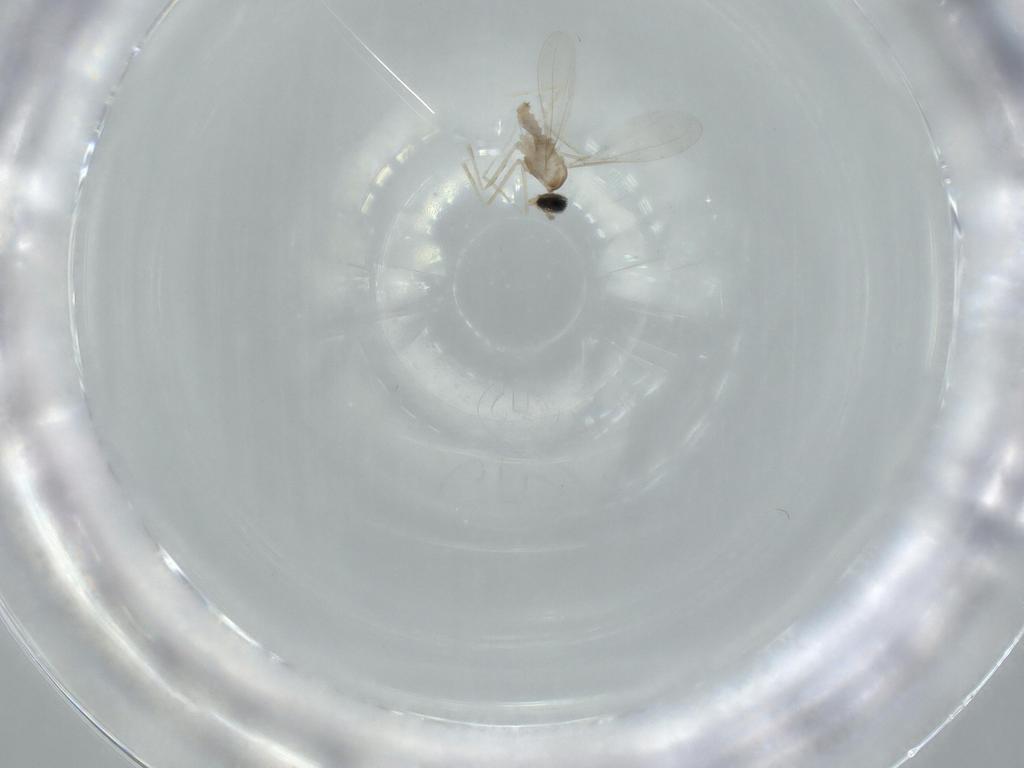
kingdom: Animalia
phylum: Arthropoda
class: Insecta
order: Diptera
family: Cecidomyiidae
